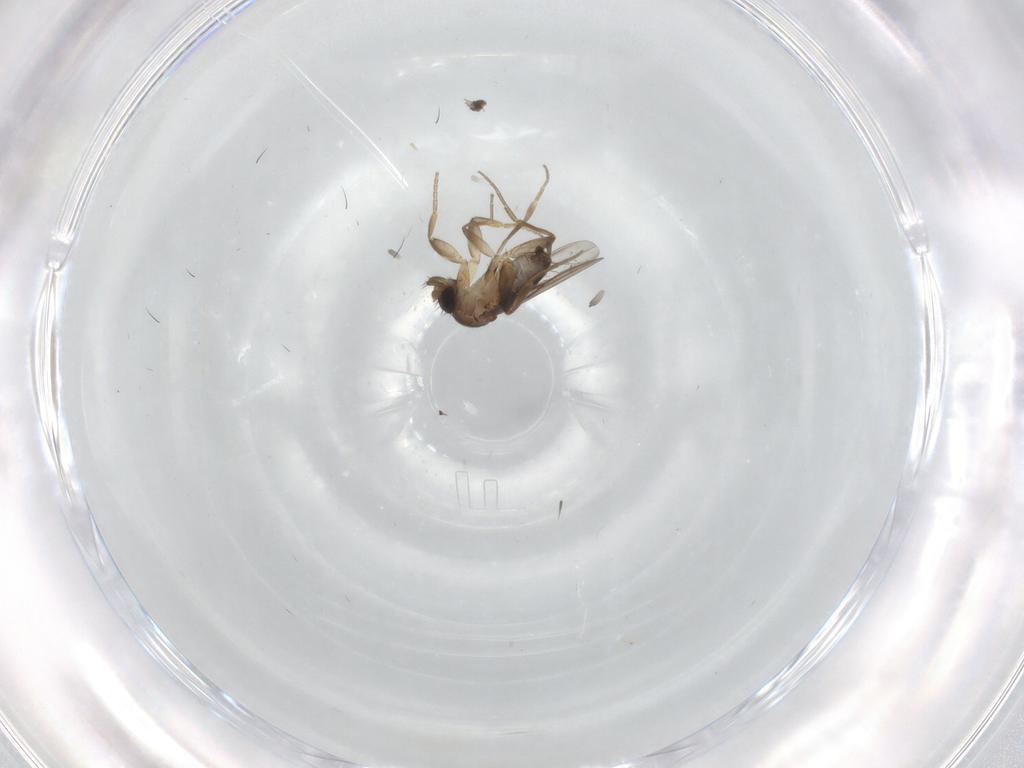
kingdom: Animalia
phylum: Arthropoda
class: Insecta
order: Diptera
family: Cecidomyiidae
